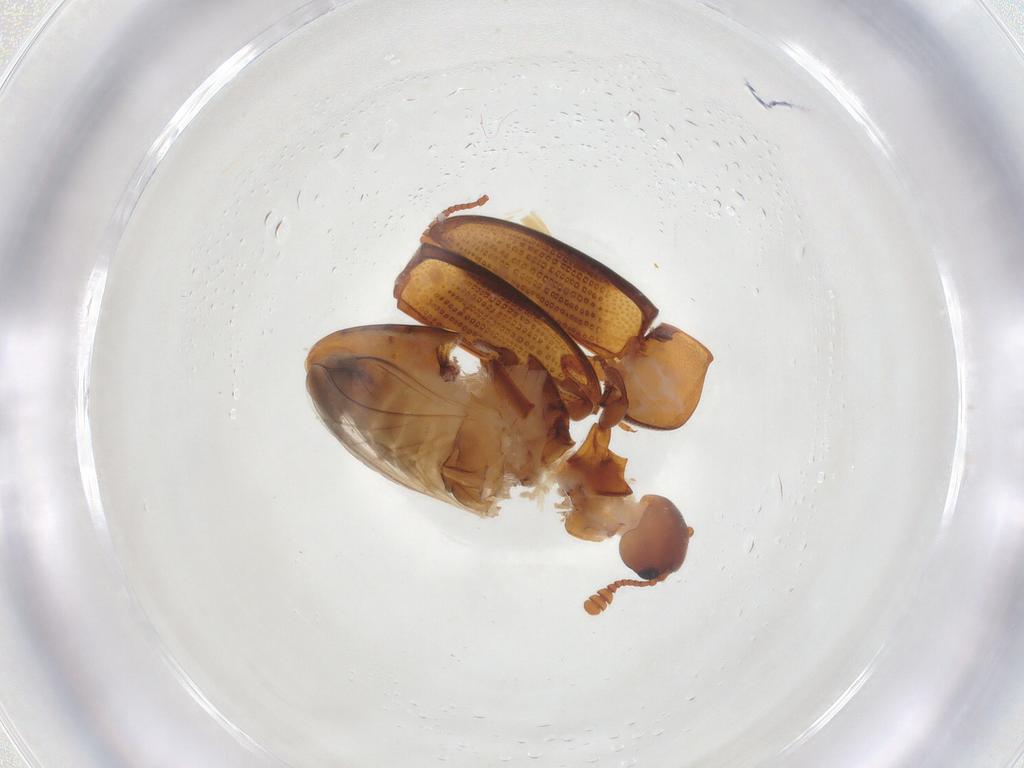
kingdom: Animalia
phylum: Arthropoda
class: Insecta
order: Coleoptera
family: Erotylidae
